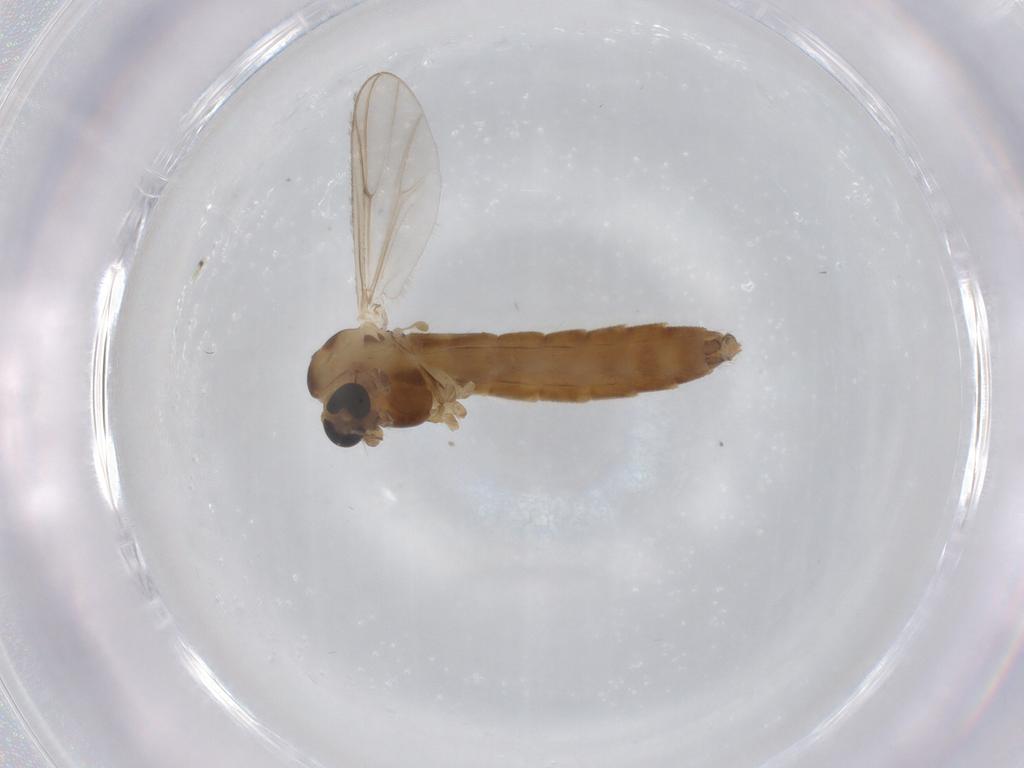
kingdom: Animalia
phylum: Arthropoda
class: Insecta
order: Diptera
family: Chironomidae
